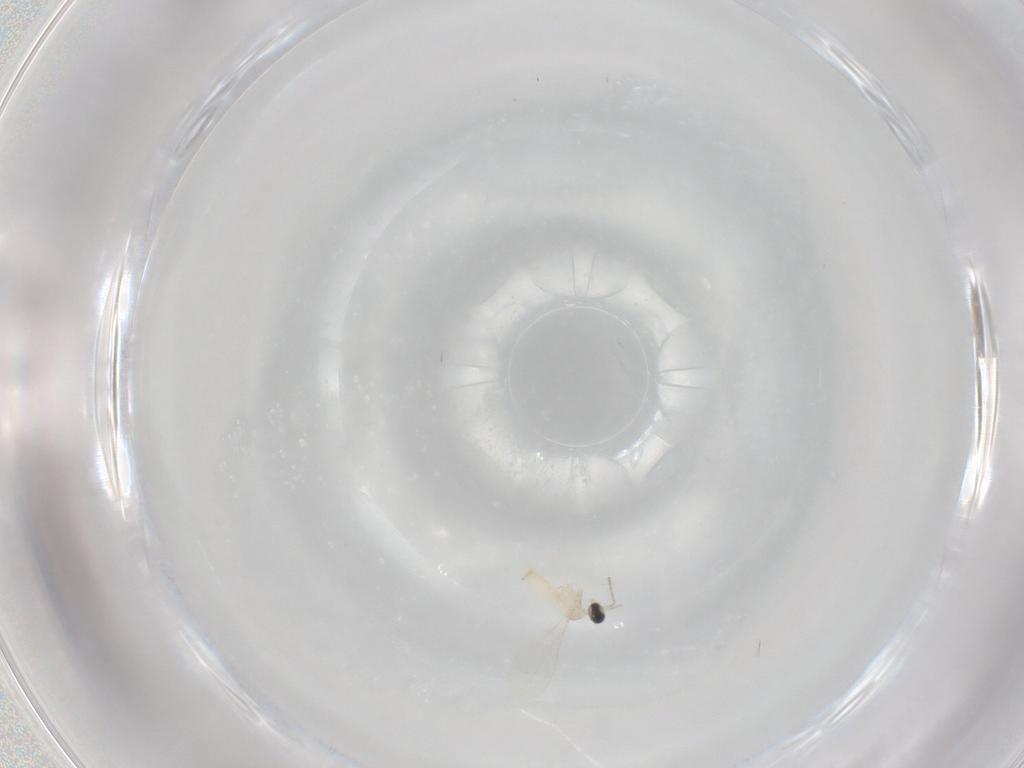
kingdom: Animalia
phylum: Arthropoda
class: Insecta
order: Diptera
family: Cecidomyiidae
